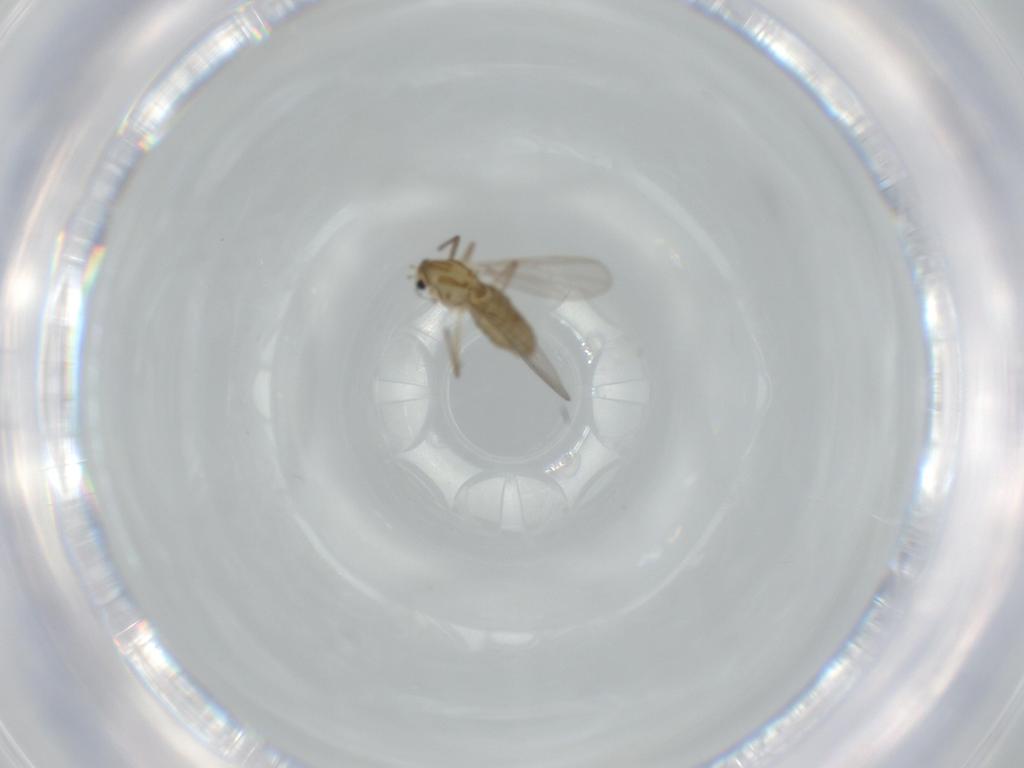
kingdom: Animalia
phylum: Arthropoda
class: Insecta
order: Diptera
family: Chironomidae
